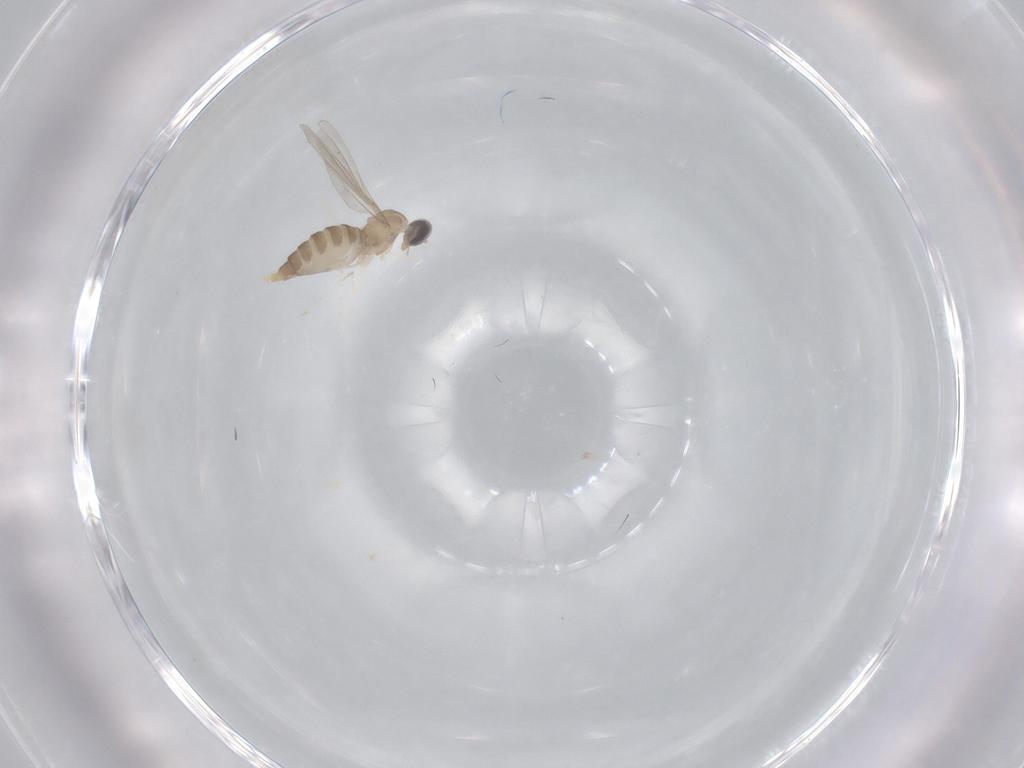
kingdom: Animalia
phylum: Arthropoda
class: Insecta
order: Diptera
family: Cecidomyiidae
